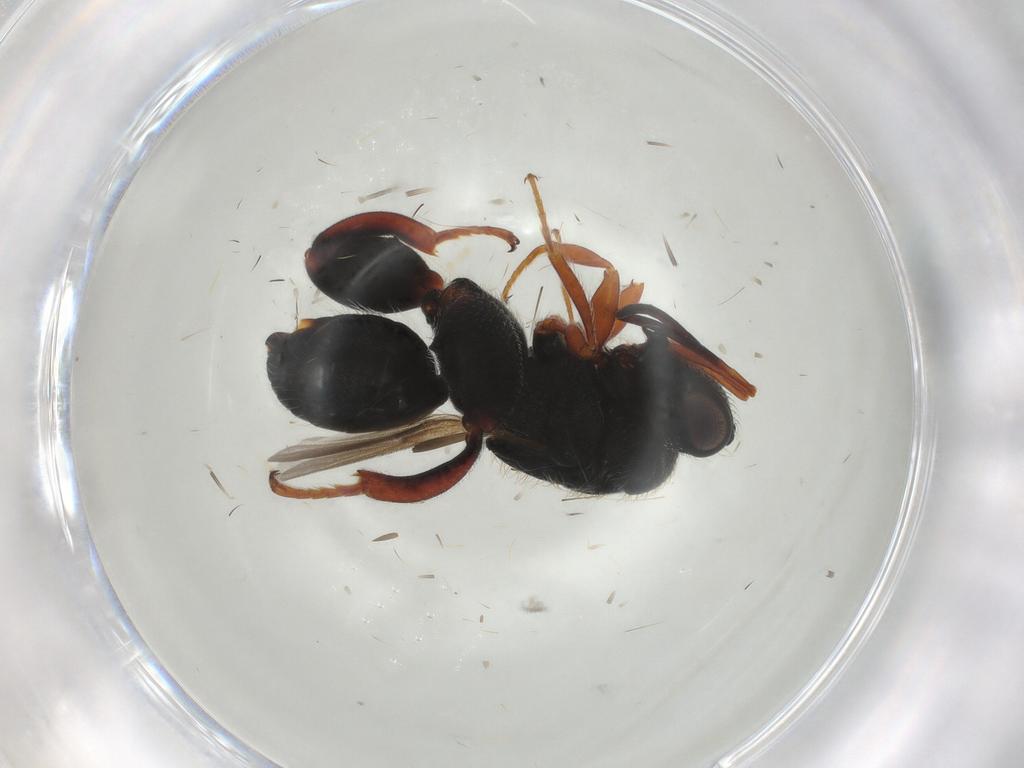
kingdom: Animalia
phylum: Arthropoda
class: Insecta
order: Hymenoptera
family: Chalcididae
